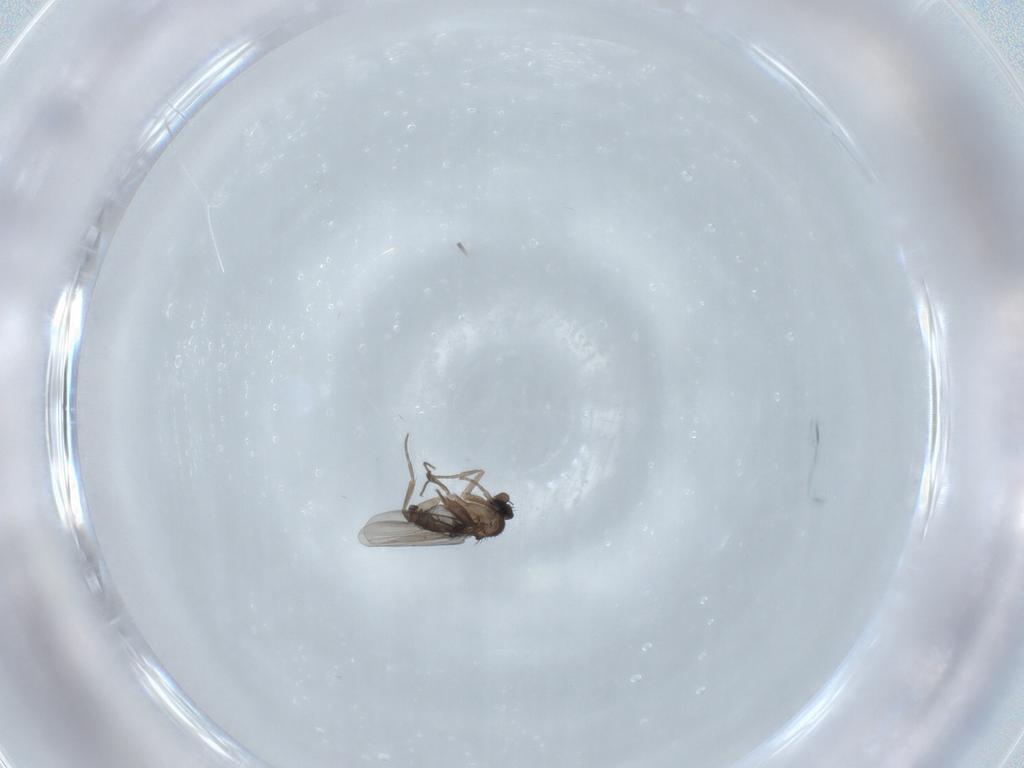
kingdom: Animalia
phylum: Arthropoda
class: Insecta
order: Diptera
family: Phoridae
